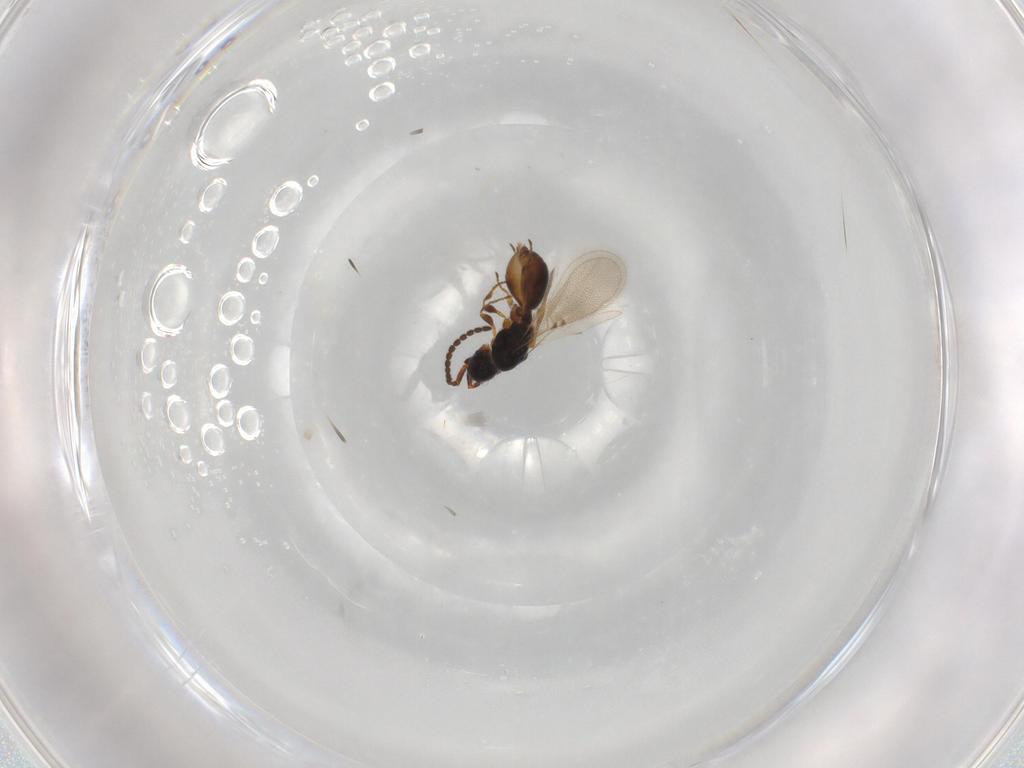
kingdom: Animalia
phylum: Arthropoda
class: Insecta
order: Hymenoptera
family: Diapriidae
